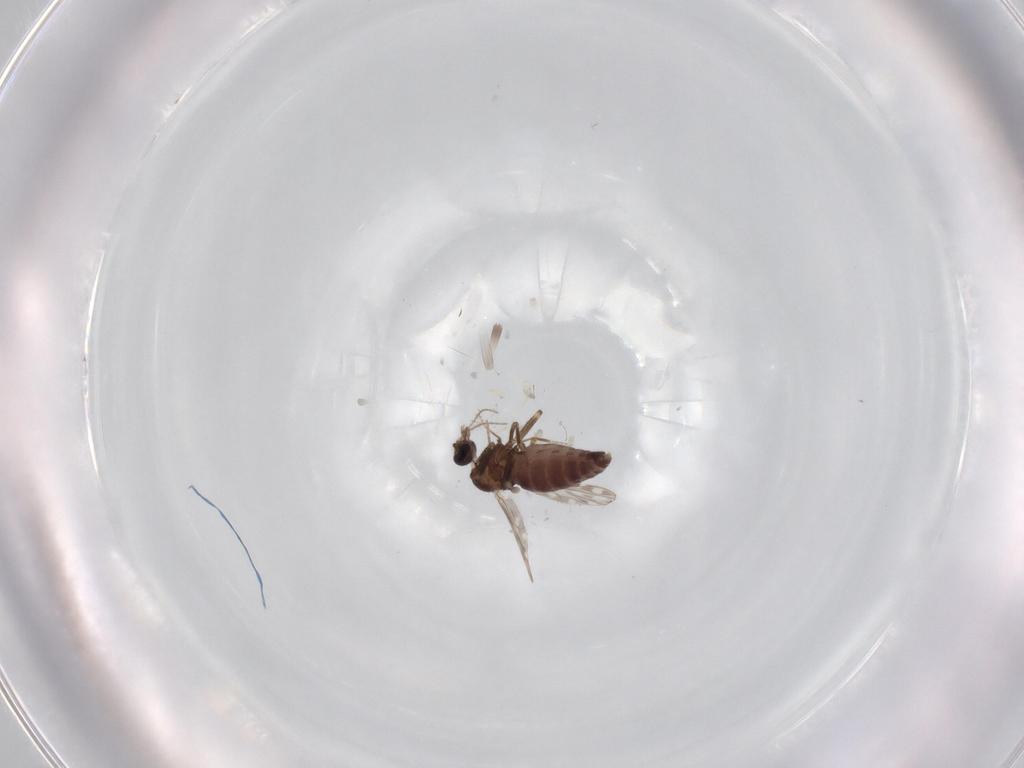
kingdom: Animalia
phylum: Arthropoda
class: Insecta
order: Diptera
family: Ceratopogonidae
